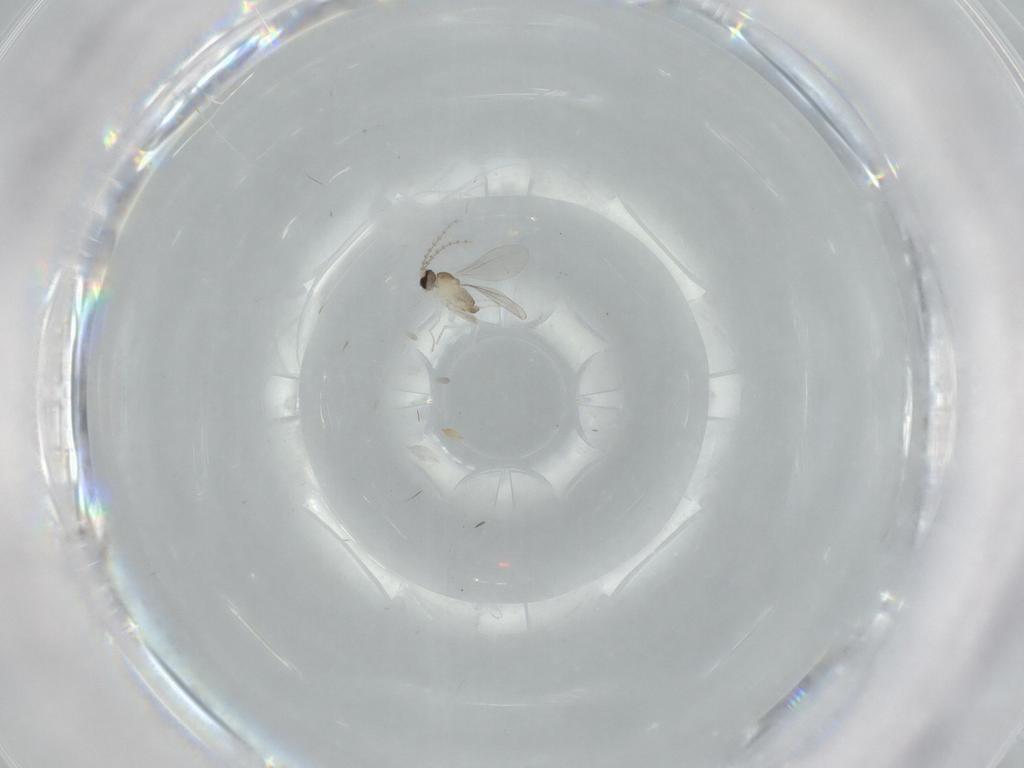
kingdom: Animalia
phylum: Arthropoda
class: Insecta
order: Diptera
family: Cecidomyiidae
